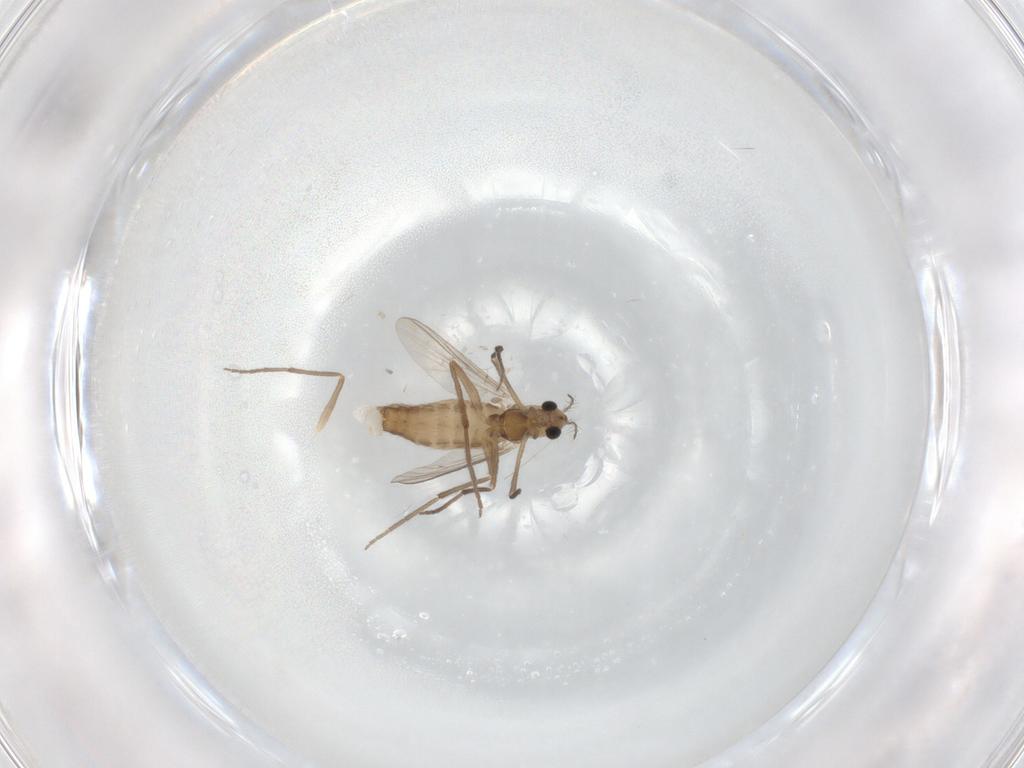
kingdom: Animalia
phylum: Arthropoda
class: Insecta
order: Diptera
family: Chironomidae
